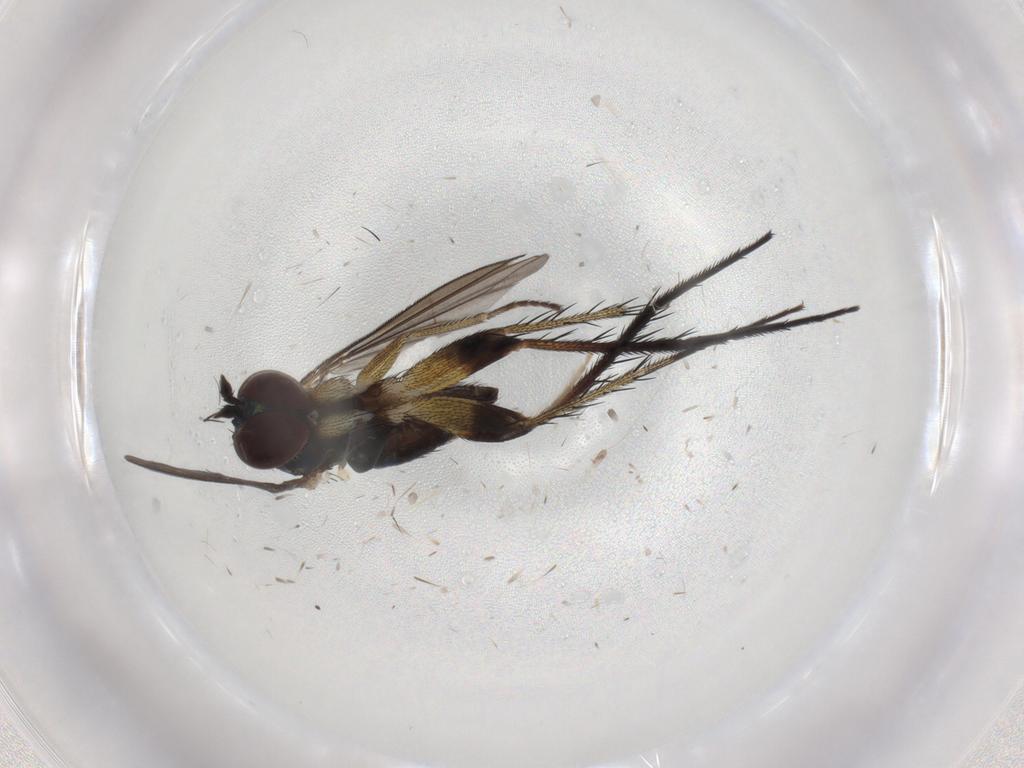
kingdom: Animalia
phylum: Arthropoda
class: Insecta
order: Diptera
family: Dolichopodidae
